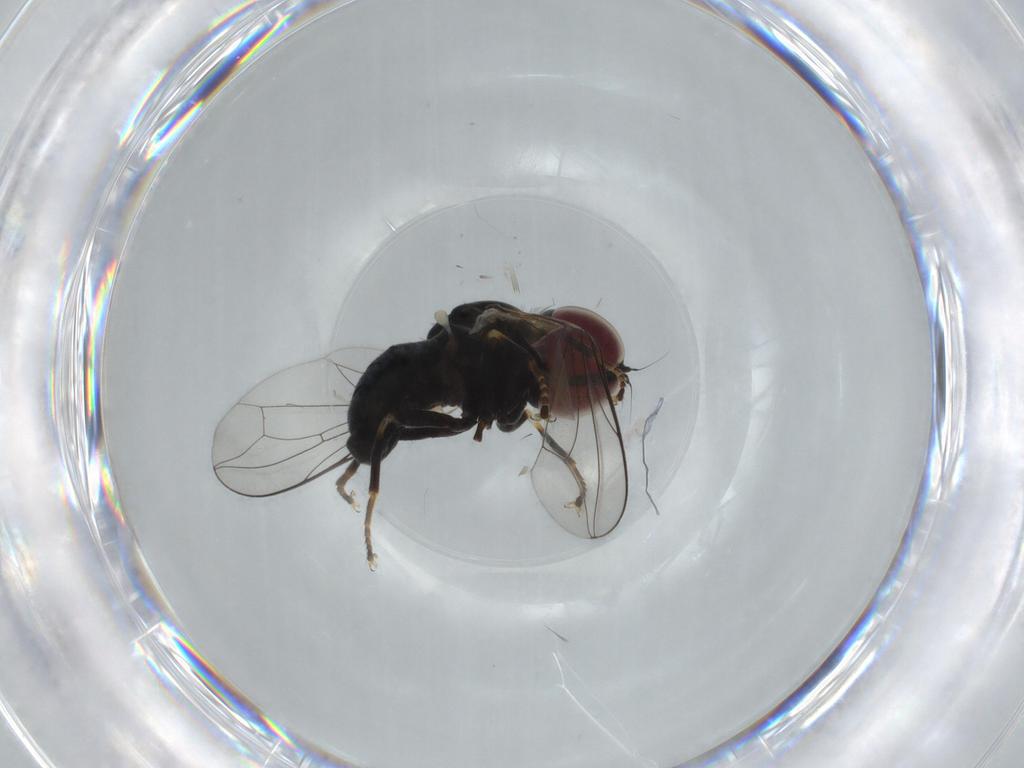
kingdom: Animalia
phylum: Arthropoda
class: Insecta
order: Diptera
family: Pipunculidae
